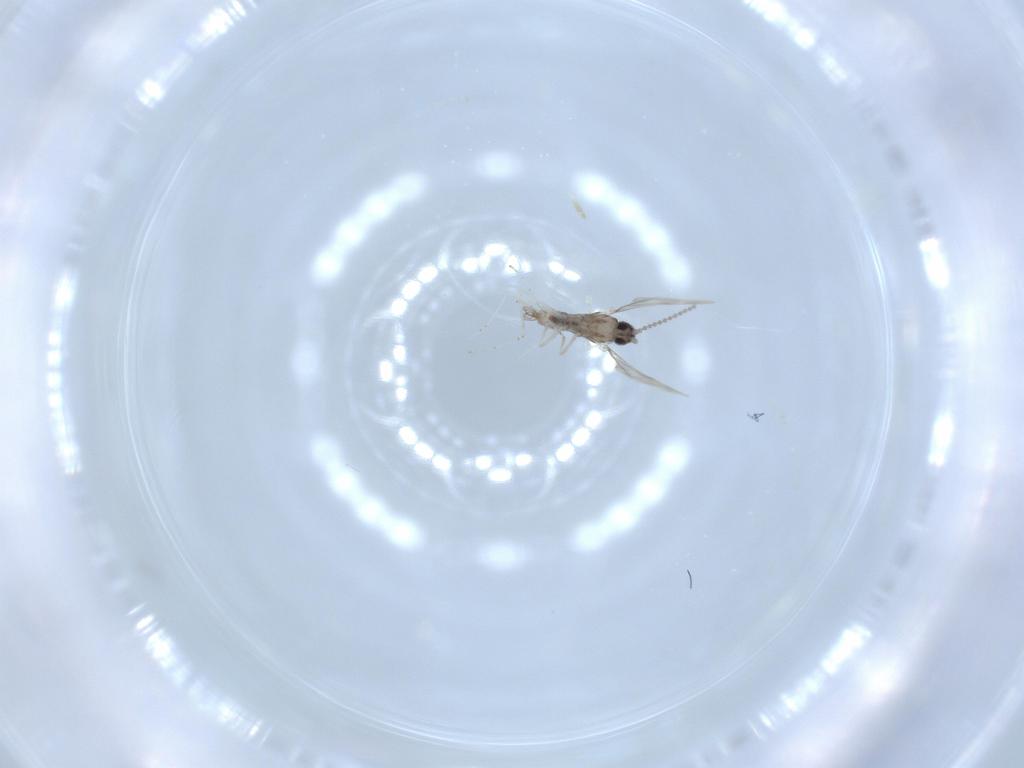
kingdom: Animalia
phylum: Arthropoda
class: Insecta
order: Diptera
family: Cecidomyiidae
